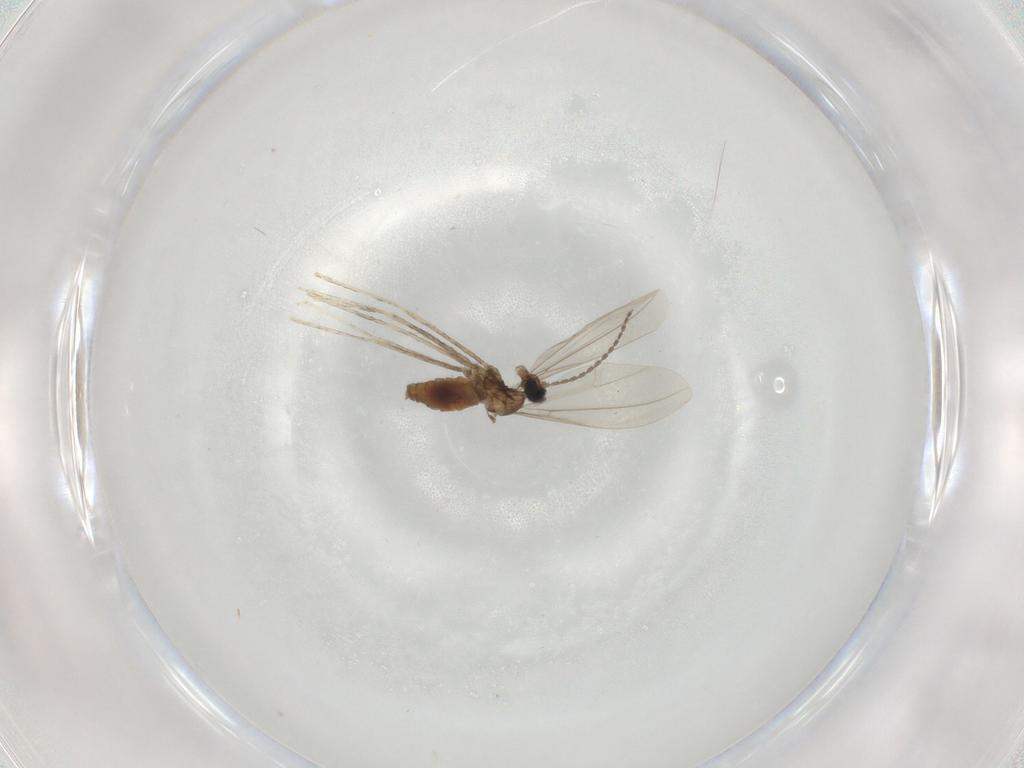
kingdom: Animalia
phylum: Arthropoda
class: Insecta
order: Diptera
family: Cecidomyiidae
